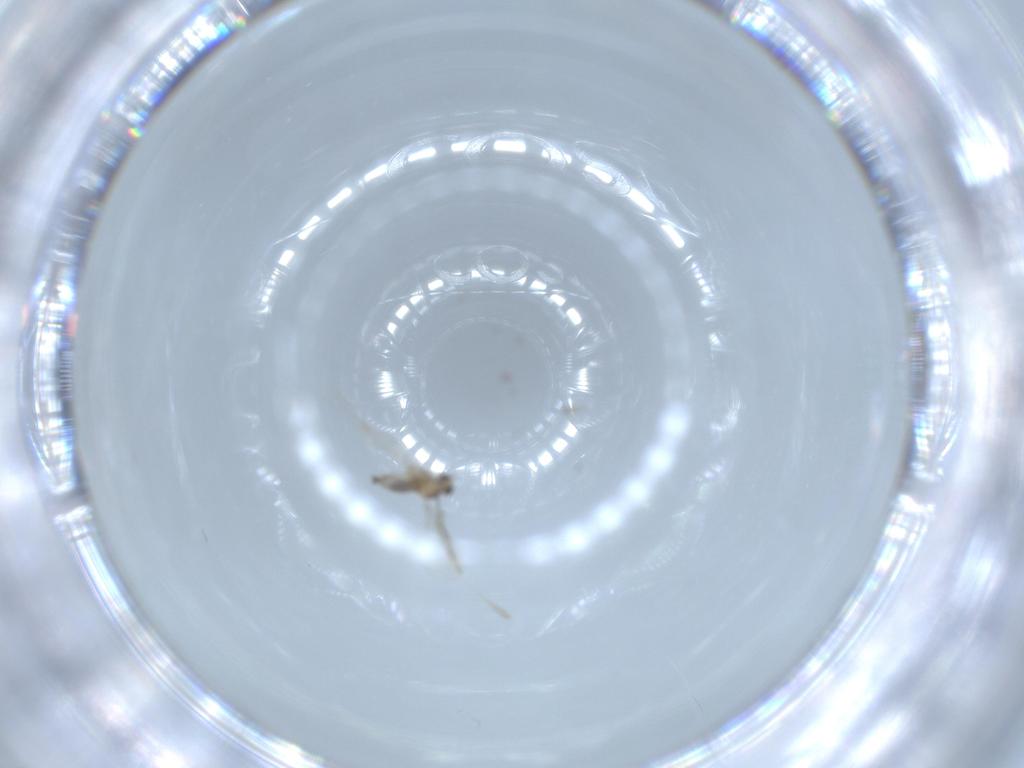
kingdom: Animalia
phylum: Arthropoda
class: Insecta
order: Diptera
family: Cecidomyiidae
